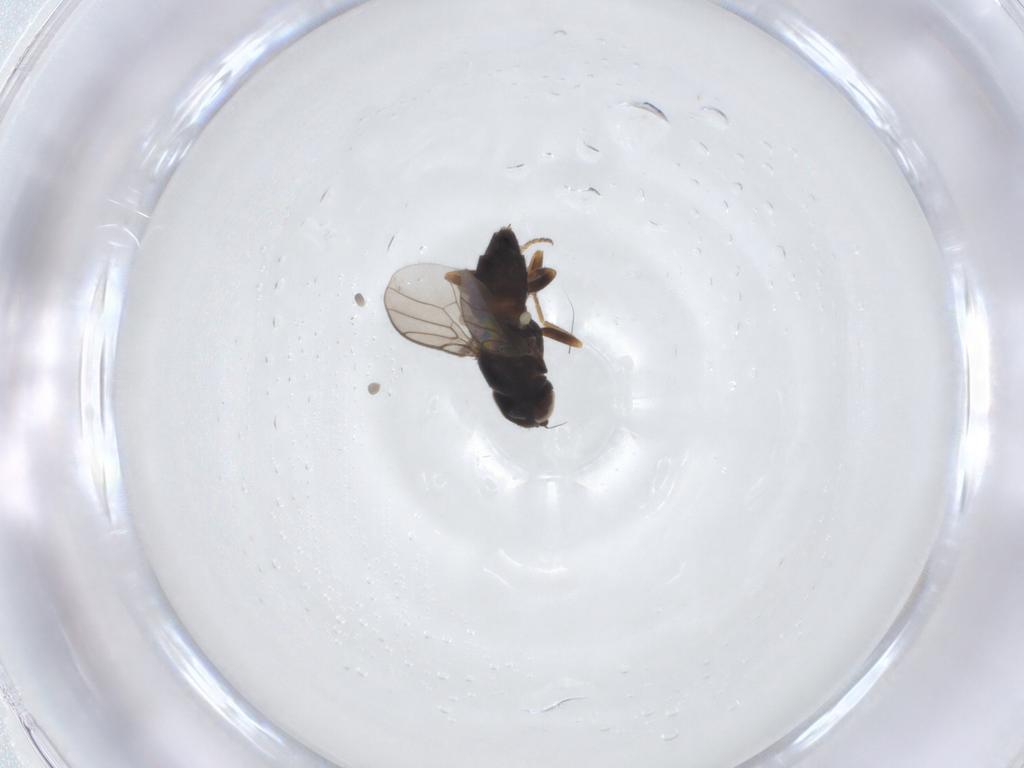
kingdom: Animalia
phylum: Arthropoda
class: Insecta
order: Diptera
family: Chloropidae
